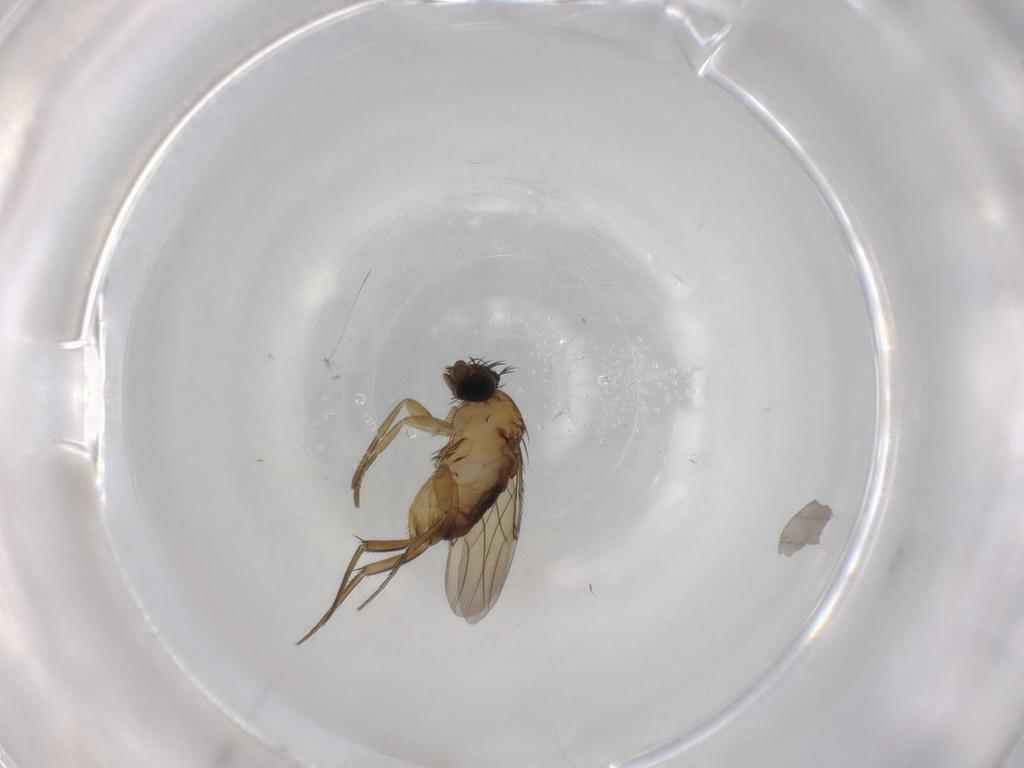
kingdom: Animalia
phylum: Arthropoda
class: Insecta
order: Diptera
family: Phoridae
